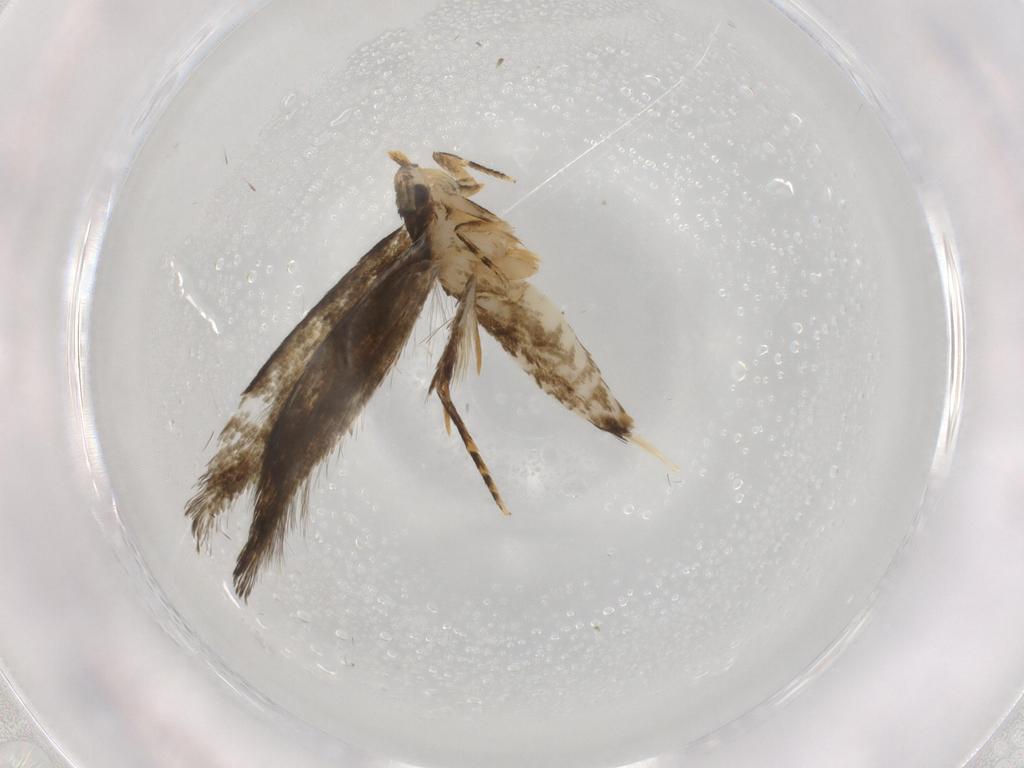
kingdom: Animalia
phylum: Arthropoda
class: Insecta
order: Lepidoptera
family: Tineidae
